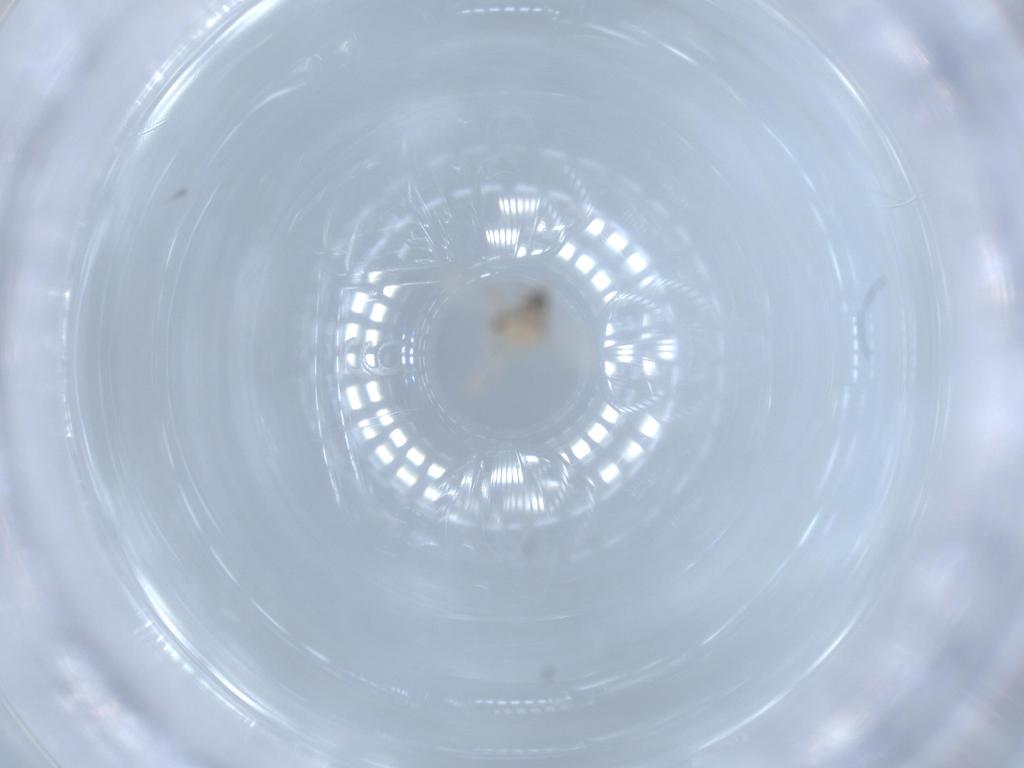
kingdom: Animalia
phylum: Arthropoda
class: Insecta
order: Diptera
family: Cecidomyiidae
